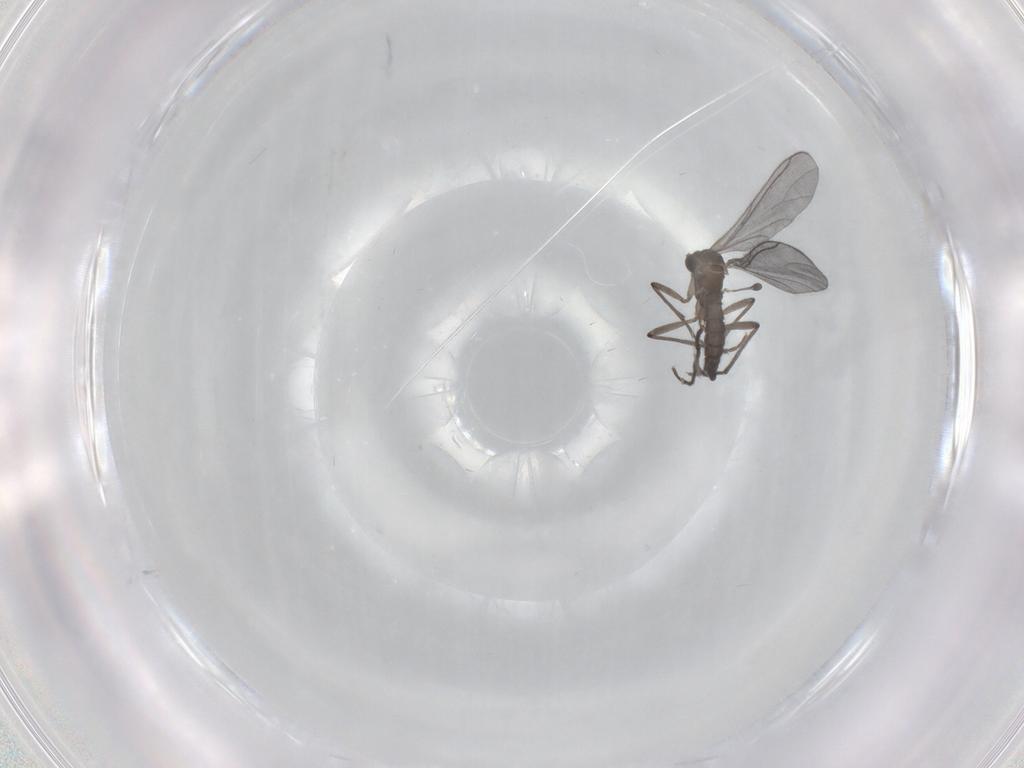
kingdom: Animalia
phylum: Arthropoda
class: Insecta
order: Diptera
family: Sciaridae
